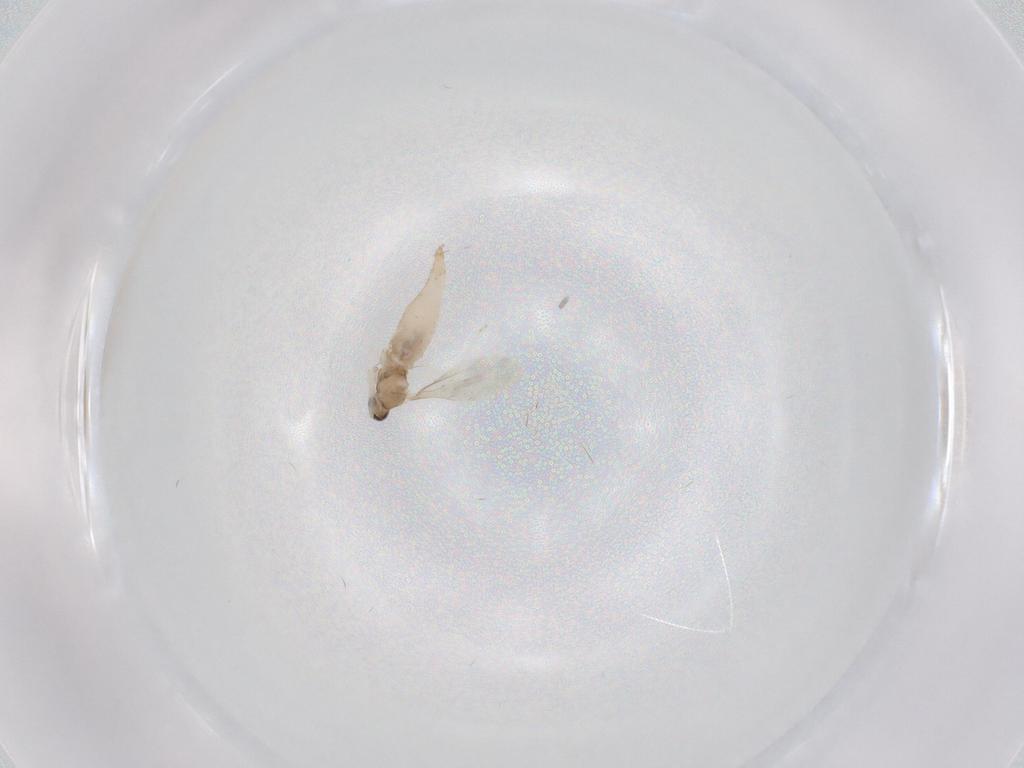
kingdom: Animalia
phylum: Arthropoda
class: Insecta
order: Diptera
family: Cecidomyiidae
